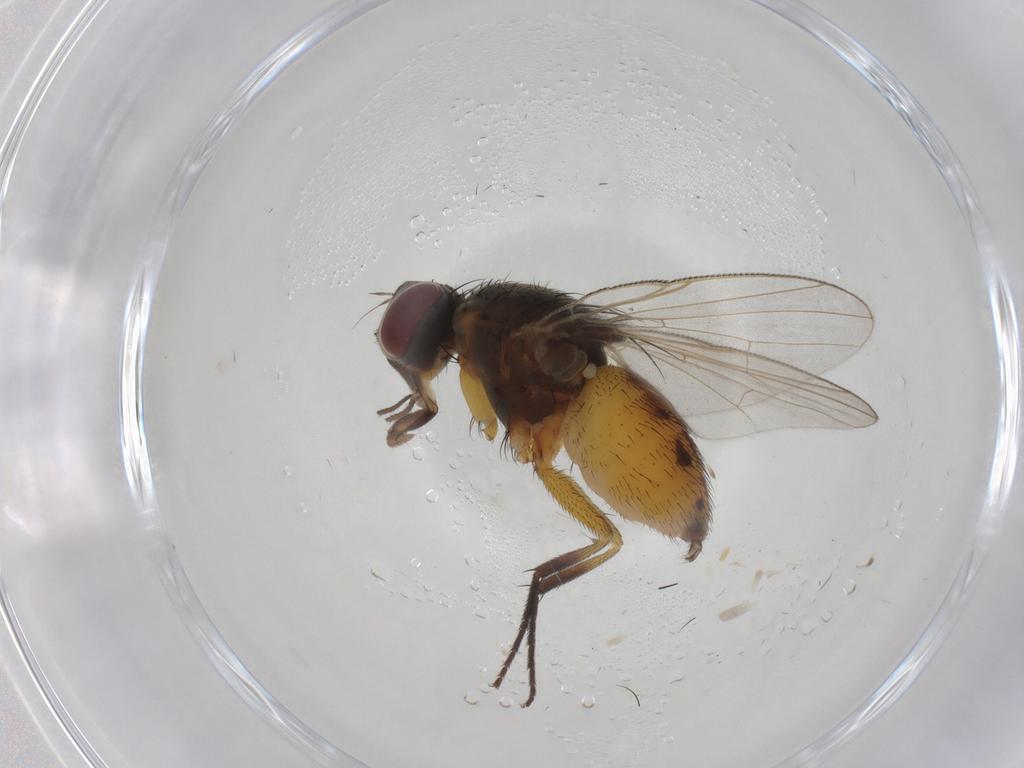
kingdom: Animalia
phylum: Arthropoda
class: Insecta
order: Diptera
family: Muscidae
